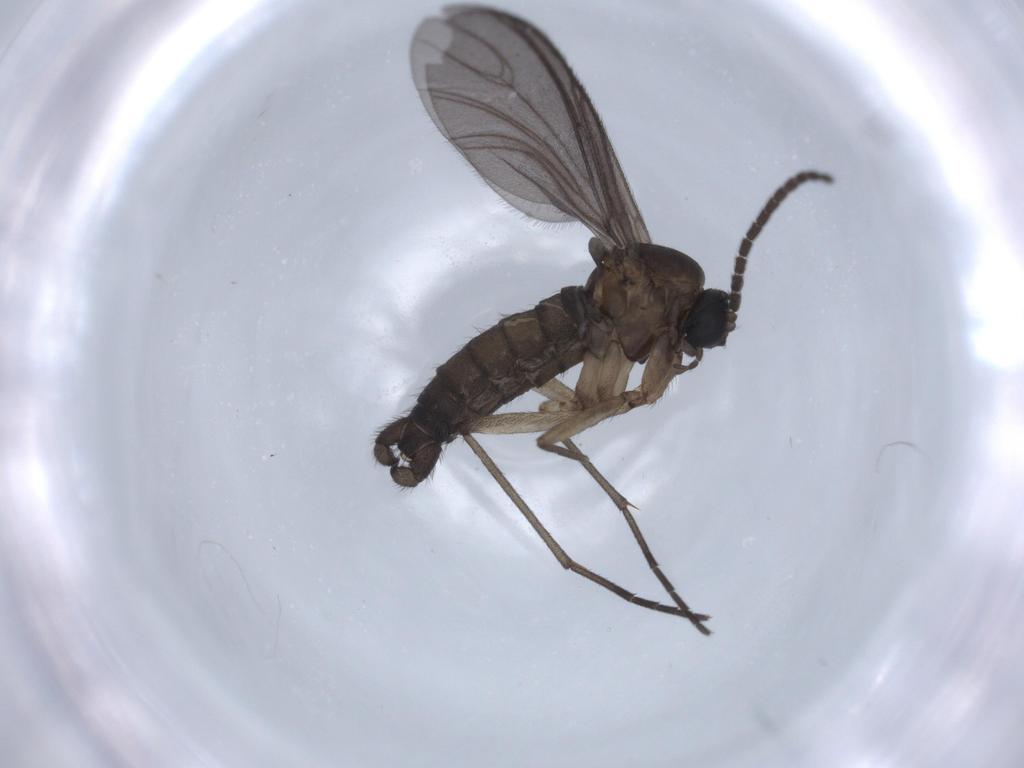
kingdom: Animalia
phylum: Arthropoda
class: Insecta
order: Diptera
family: Sciaridae
